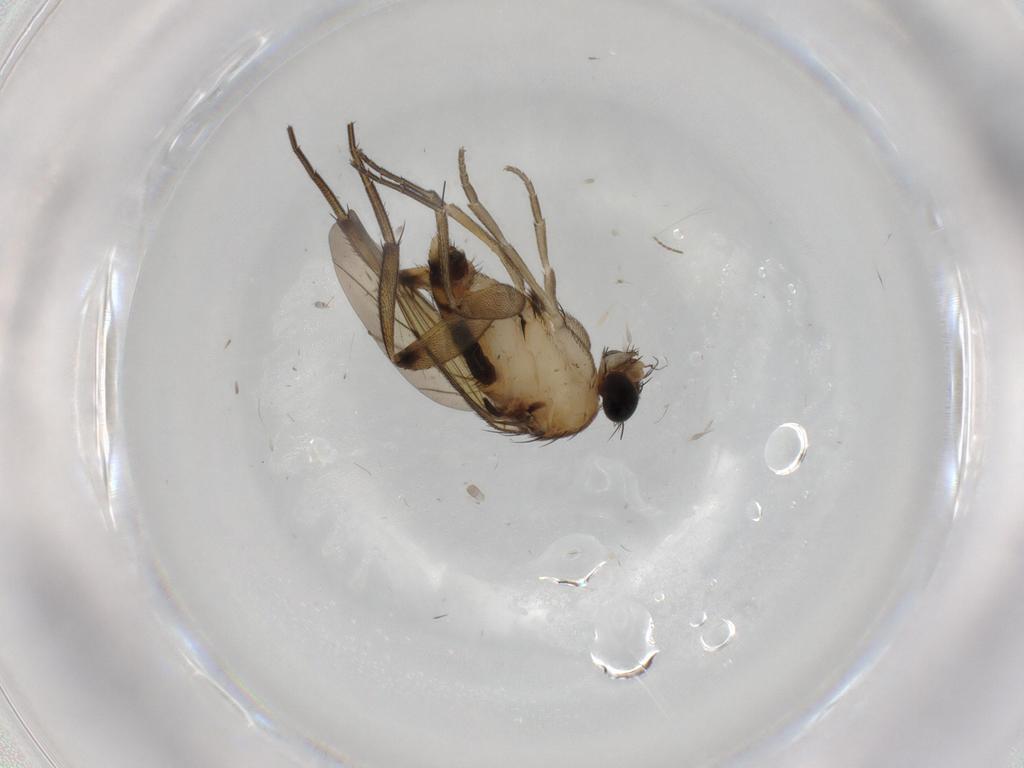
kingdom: Animalia
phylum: Arthropoda
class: Insecta
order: Diptera
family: Phoridae
